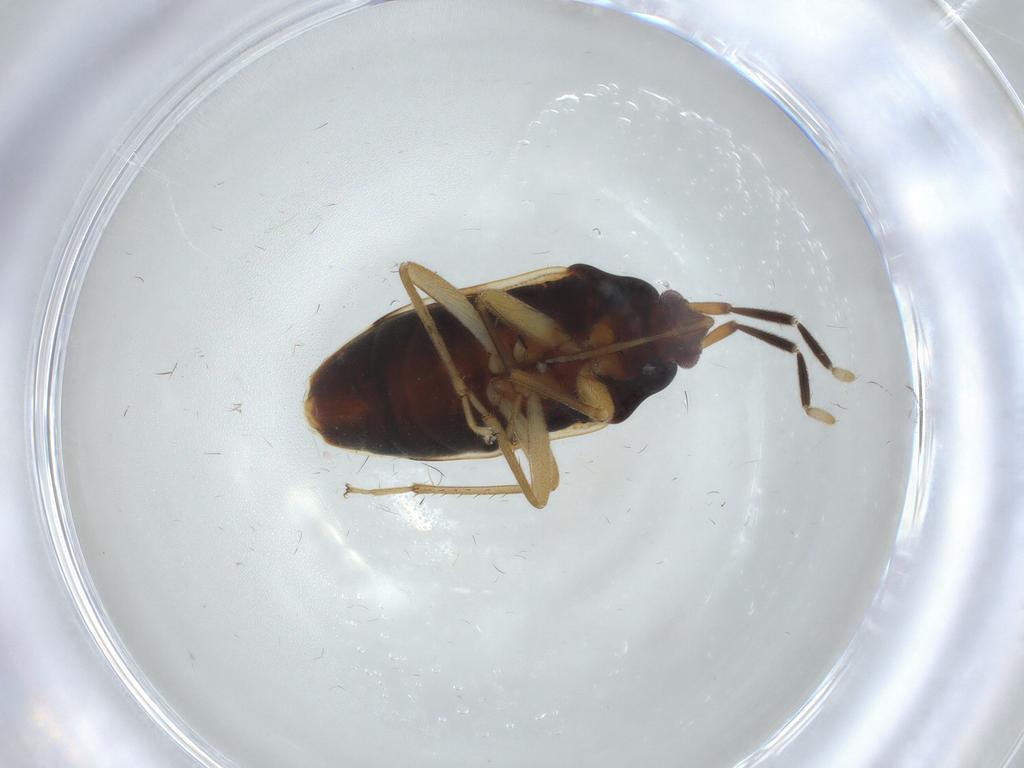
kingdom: Animalia
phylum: Arthropoda
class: Insecta
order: Hemiptera
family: Rhyparochromidae
